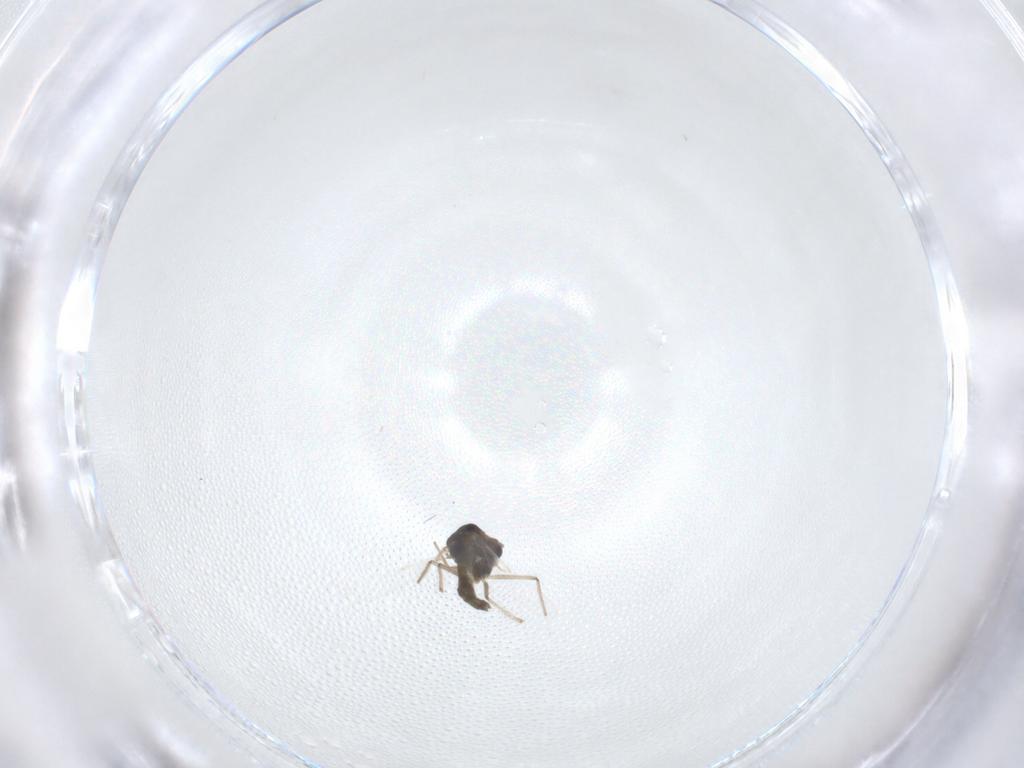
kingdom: Animalia
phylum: Arthropoda
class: Insecta
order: Diptera
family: Chironomidae
